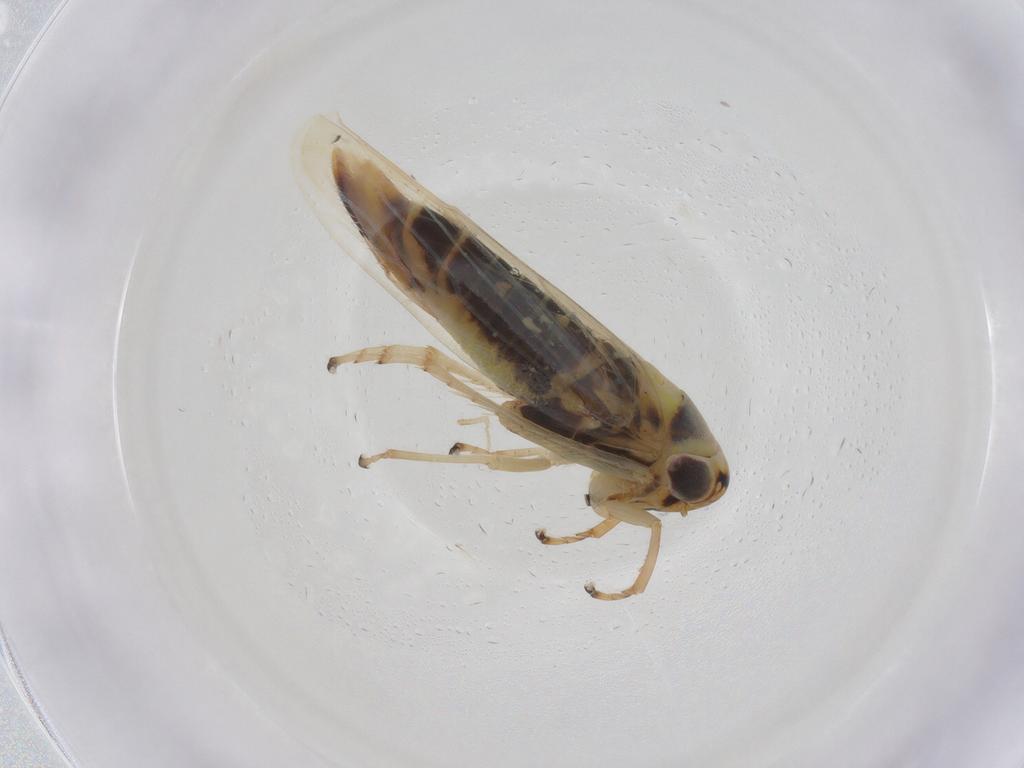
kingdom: Animalia
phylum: Arthropoda
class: Insecta
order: Hemiptera
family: Cicadellidae
